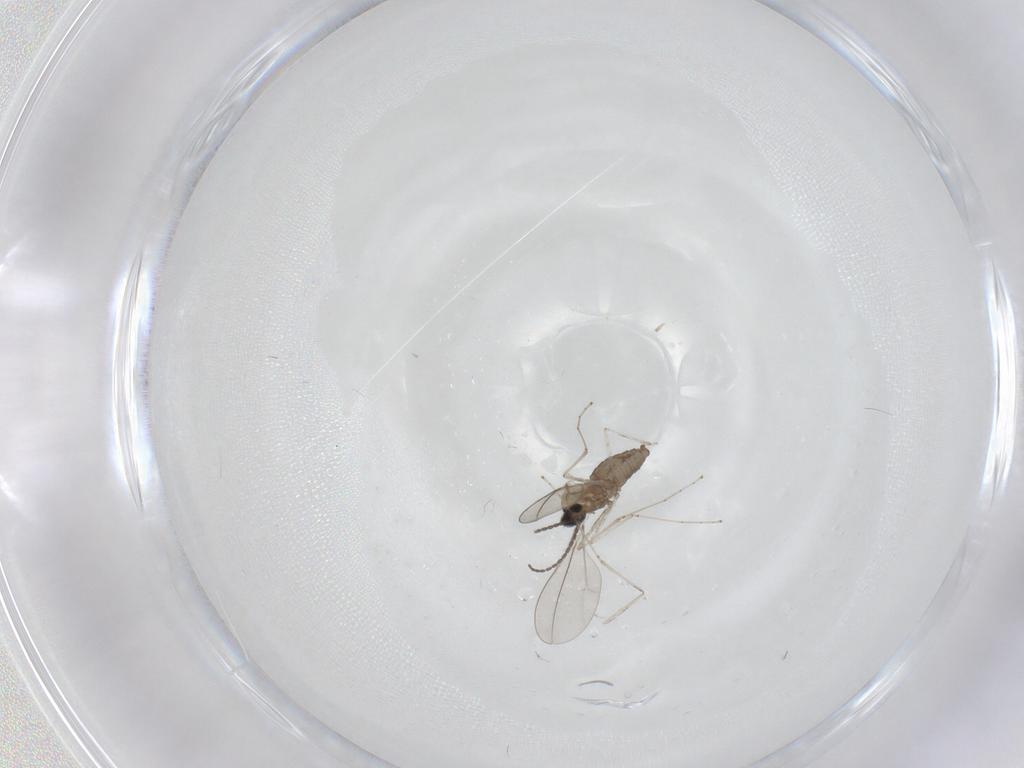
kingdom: Animalia
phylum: Arthropoda
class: Insecta
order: Diptera
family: Cecidomyiidae
